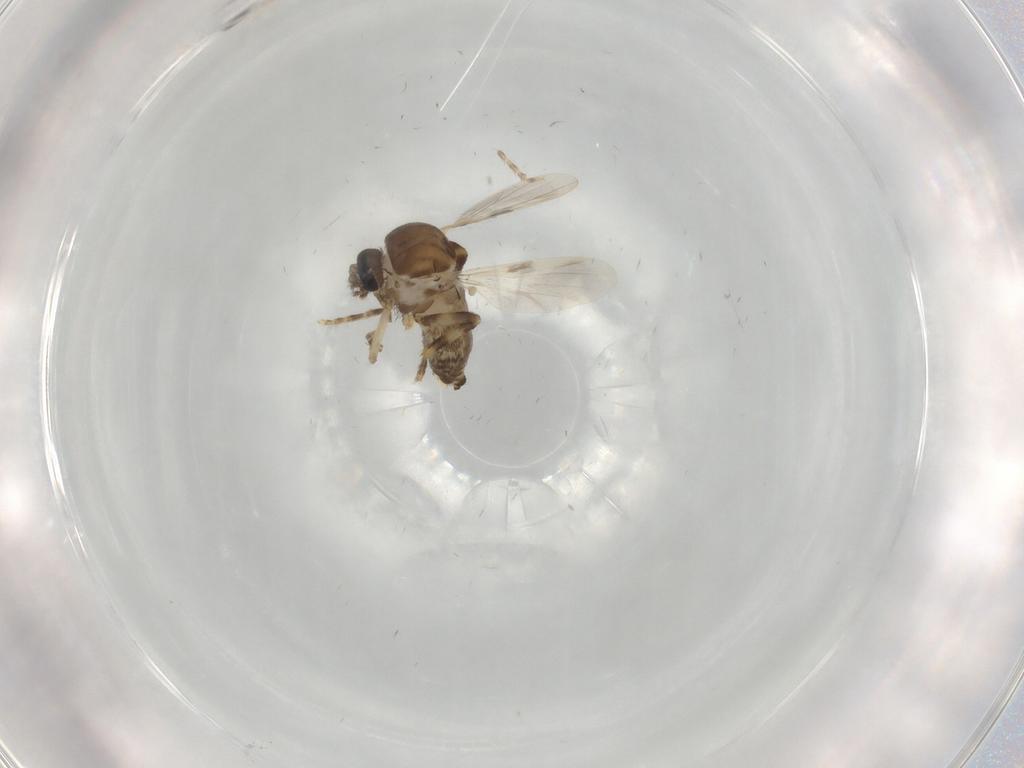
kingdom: Animalia
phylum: Arthropoda
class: Insecta
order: Diptera
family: Ceratopogonidae
